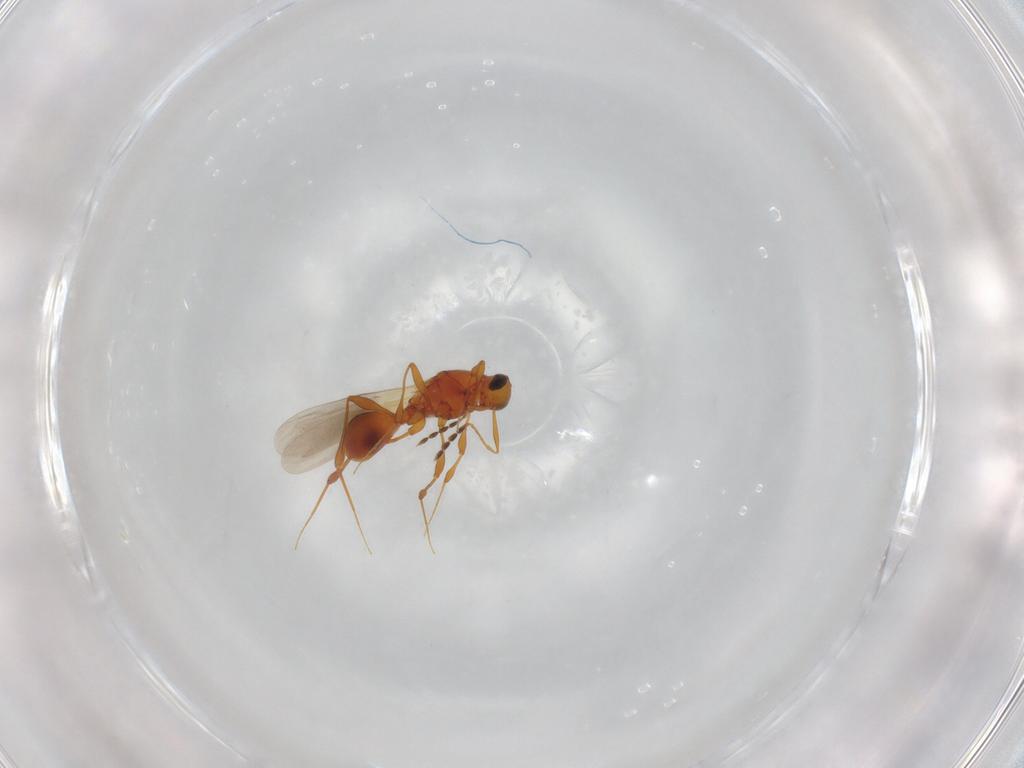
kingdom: Animalia
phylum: Arthropoda
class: Insecta
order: Hymenoptera
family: Platygastridae
